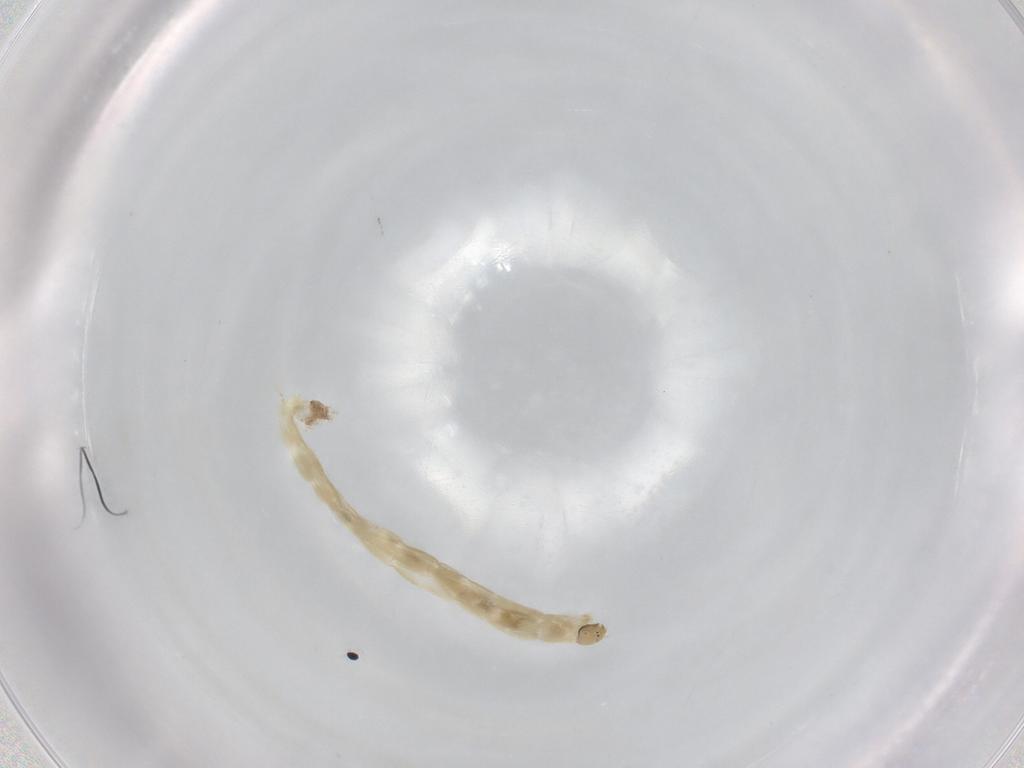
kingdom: Animalia
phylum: Arthropoda
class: Insecta
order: Diptera
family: Chironomidae
